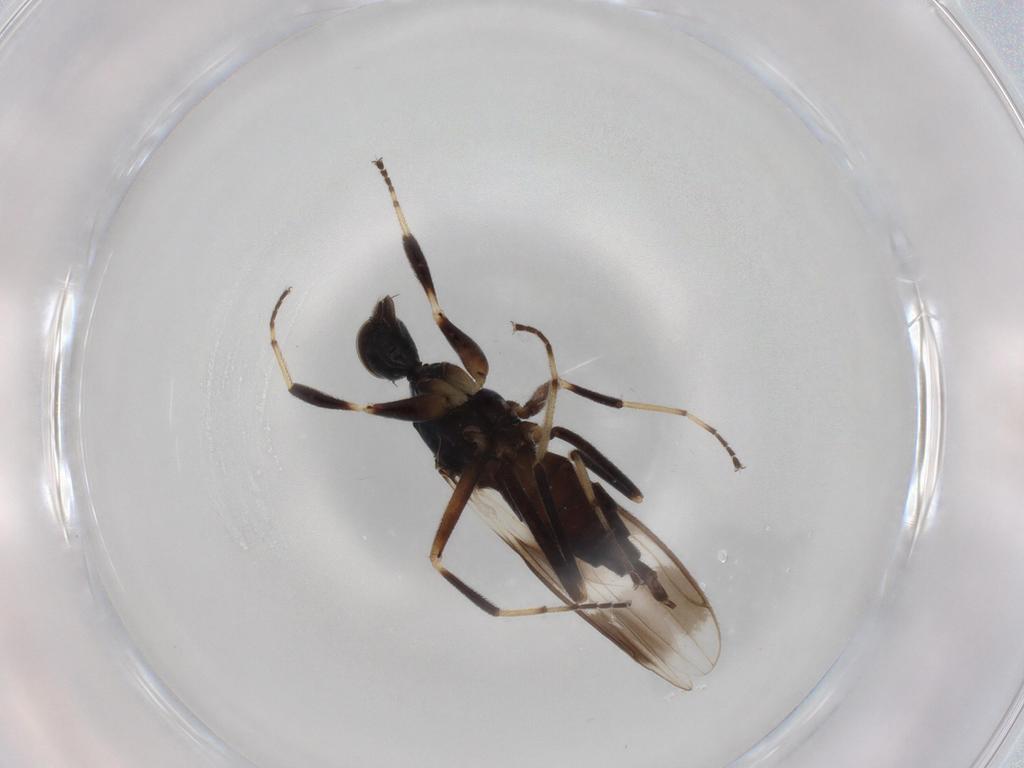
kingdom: Animalia
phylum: Arthropoda
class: Insecta
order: Diptera
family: Hybotidae
